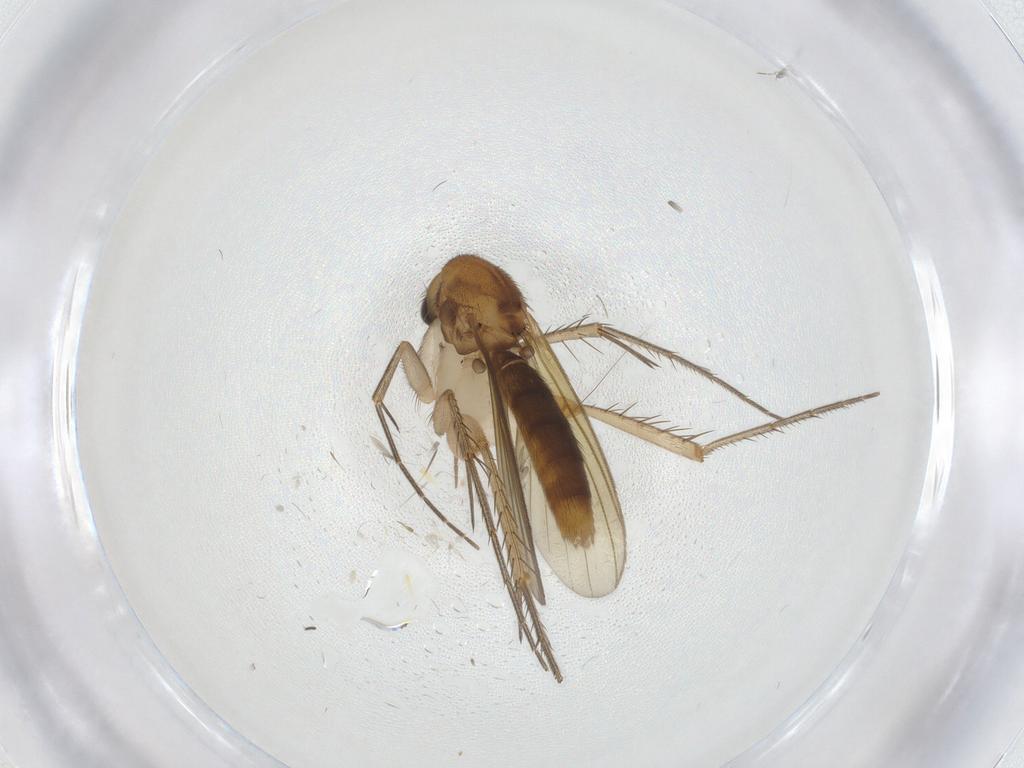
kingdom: Animalia
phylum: Arthropoda
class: Insecta
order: Diptera
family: Mycetophilidae
